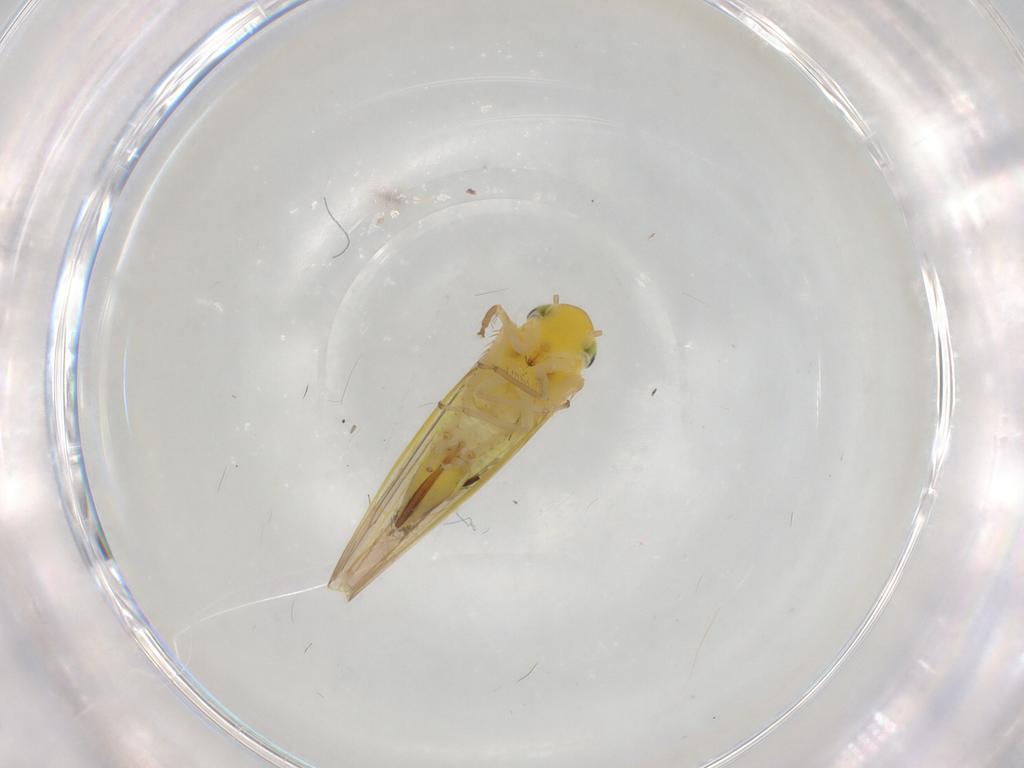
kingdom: Animalia
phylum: Arthropoda
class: Insecta
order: Hemiptera
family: Cicadellidae
